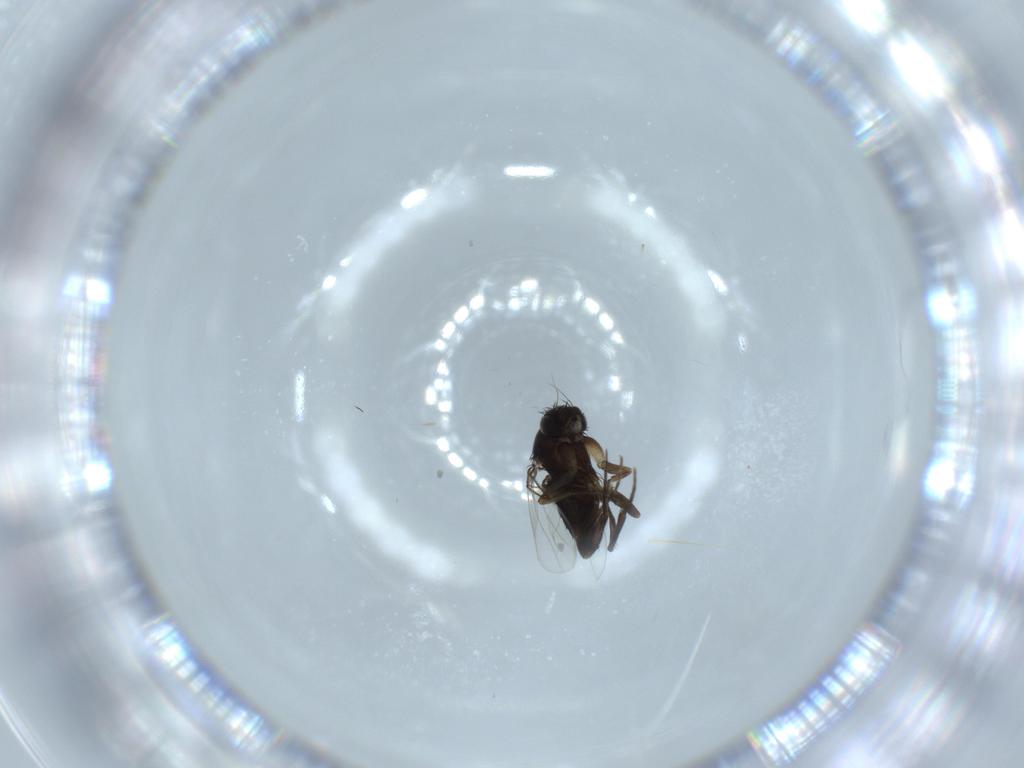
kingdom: Animalia
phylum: Arthropoda
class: Insecta
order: Diptera
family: Phoridae
